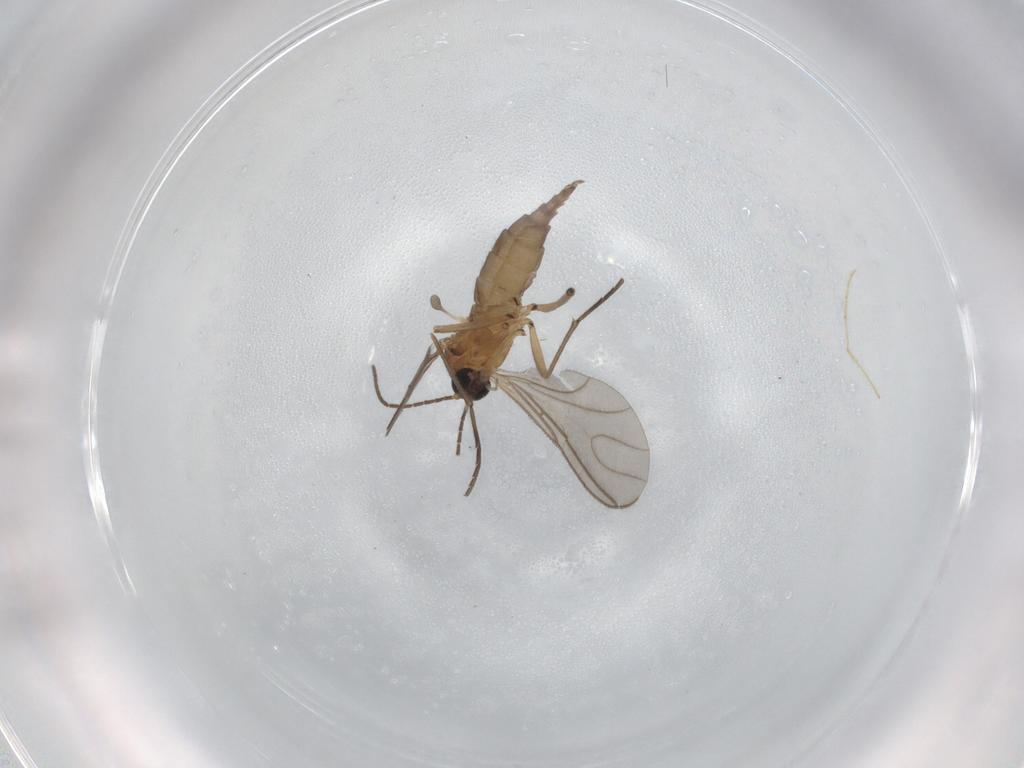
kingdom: Animalia
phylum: Arthropoda
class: Insecta
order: Diptera
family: Sciaridae
